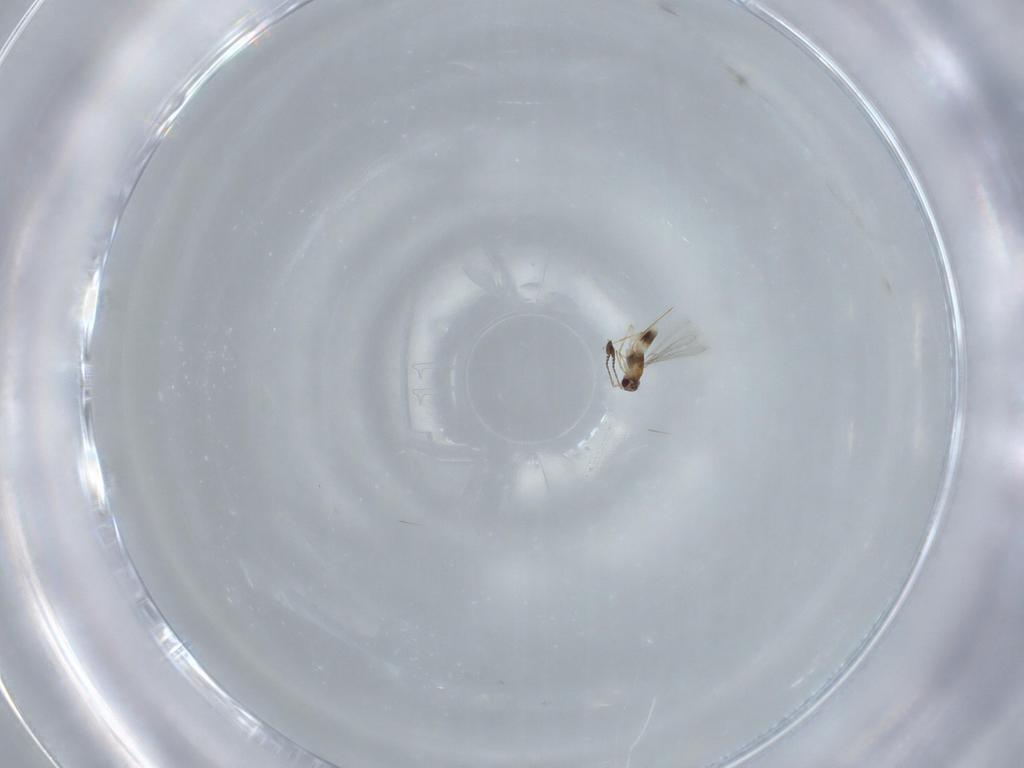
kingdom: Animalia
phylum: Arthropoda
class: Insecta
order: Hymenoptera
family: Mymaridae
